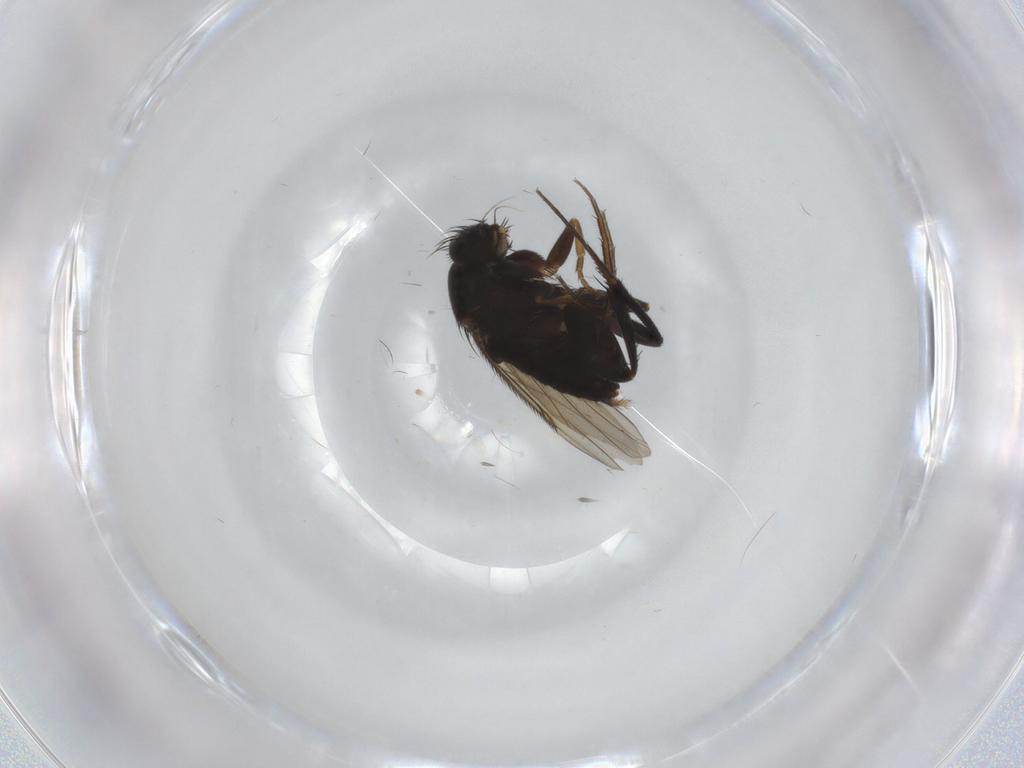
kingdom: Animalia
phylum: Arthropoda
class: Insecta
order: Diptera
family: Phoridae
